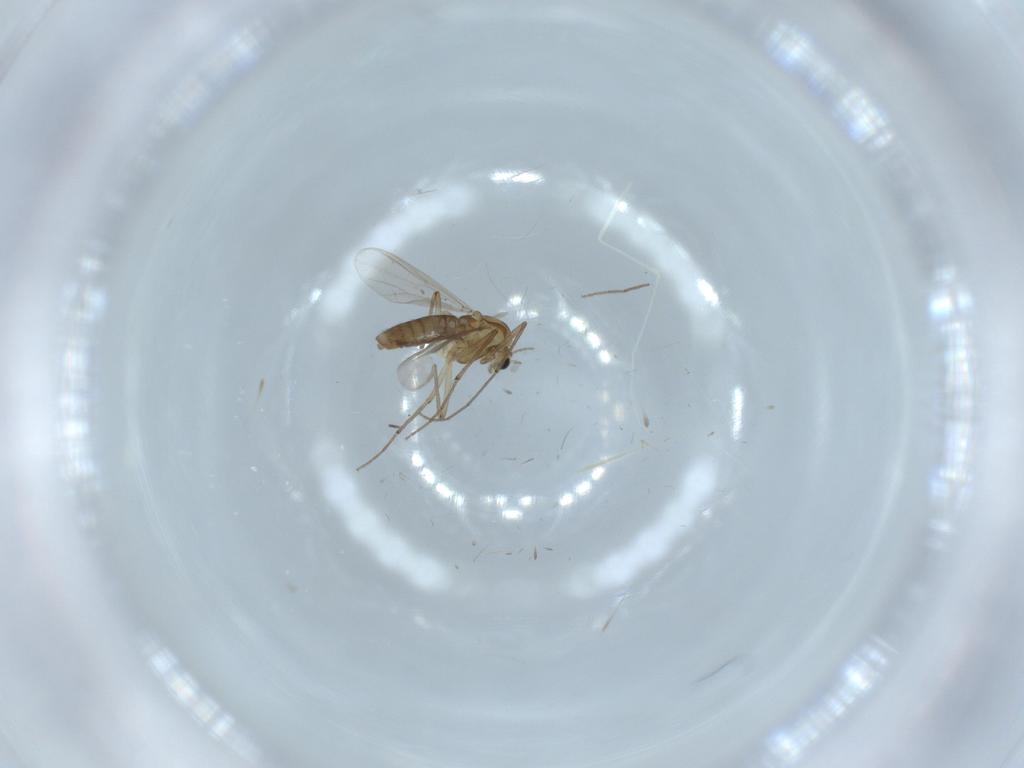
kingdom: Animalia
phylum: Arthropoda
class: Insecta
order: Diptera
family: Chironomidae
